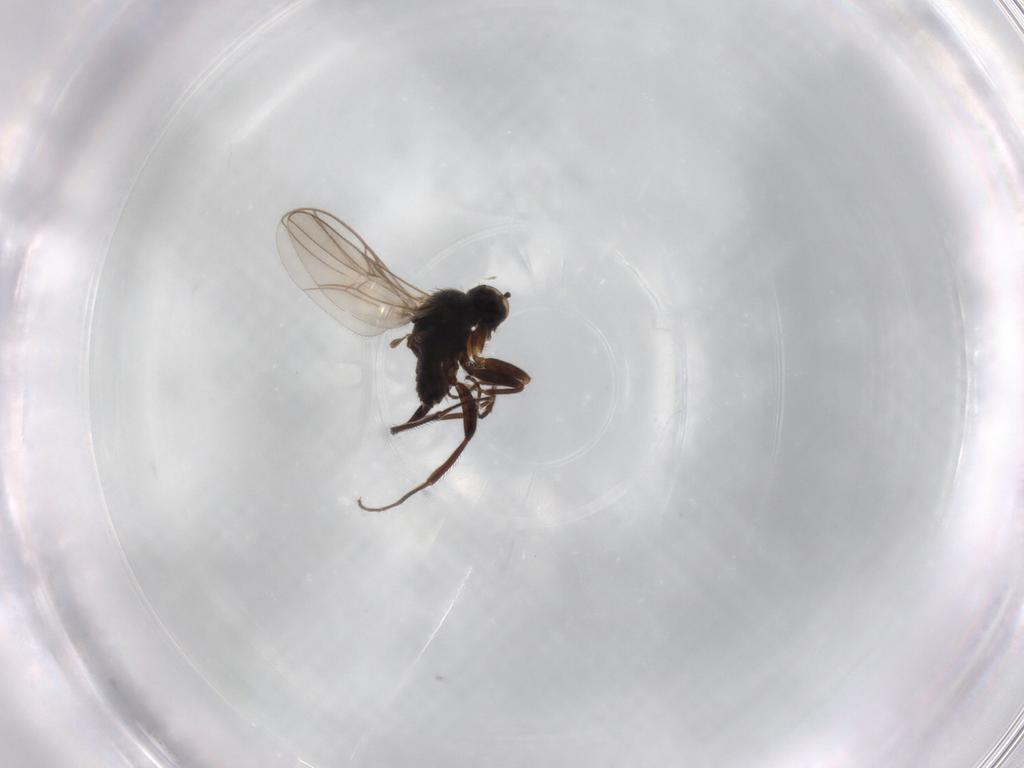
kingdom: Animalia
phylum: Arthropoda
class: Insecta
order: Diptera
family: Hybotidae
